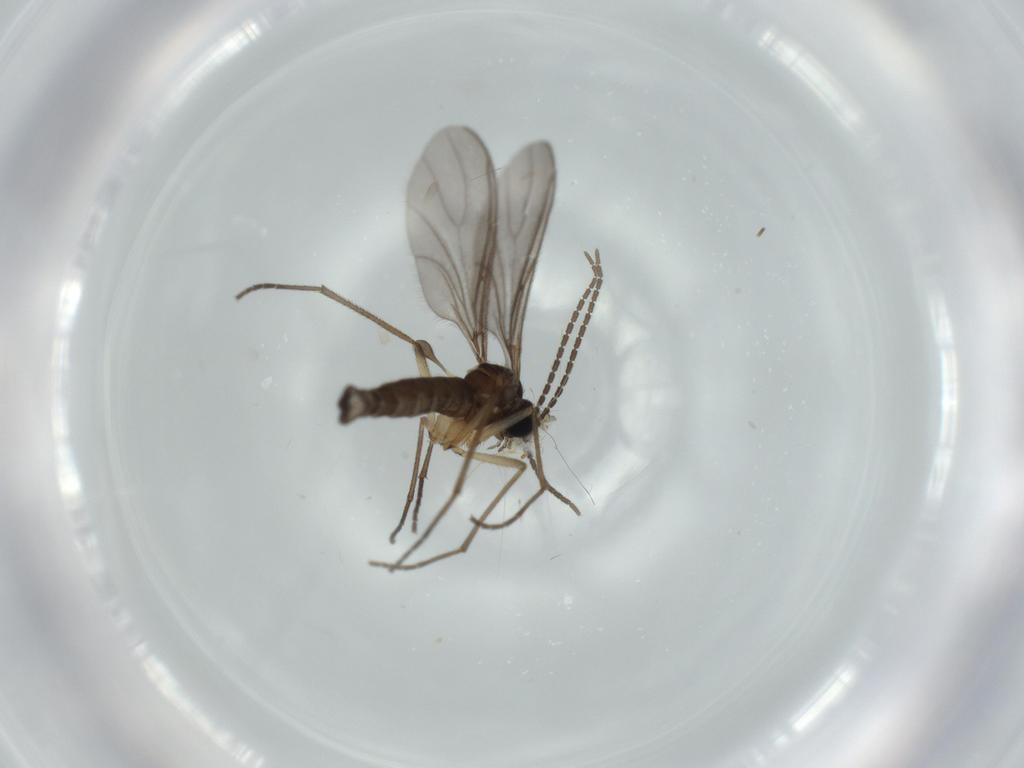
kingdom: Animalia
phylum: Arthropoda
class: Insecta
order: Diptera
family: Sciaridae
